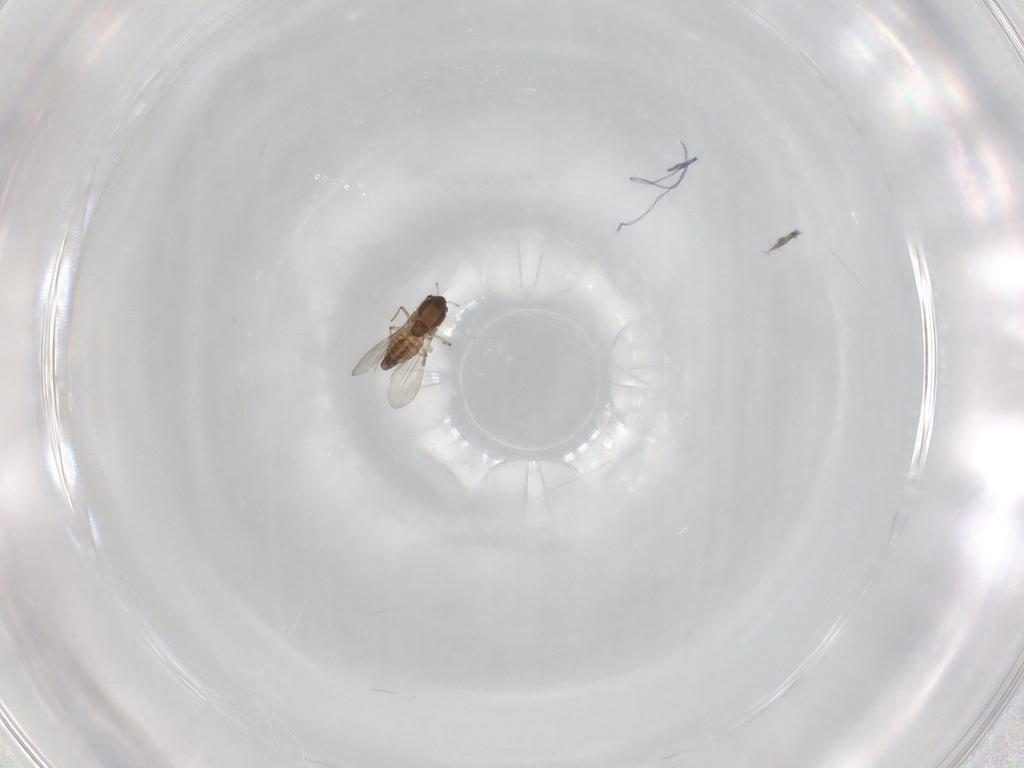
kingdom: Animalia
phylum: Arthropoda
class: Insecta
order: Diptera
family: Chironomidae
